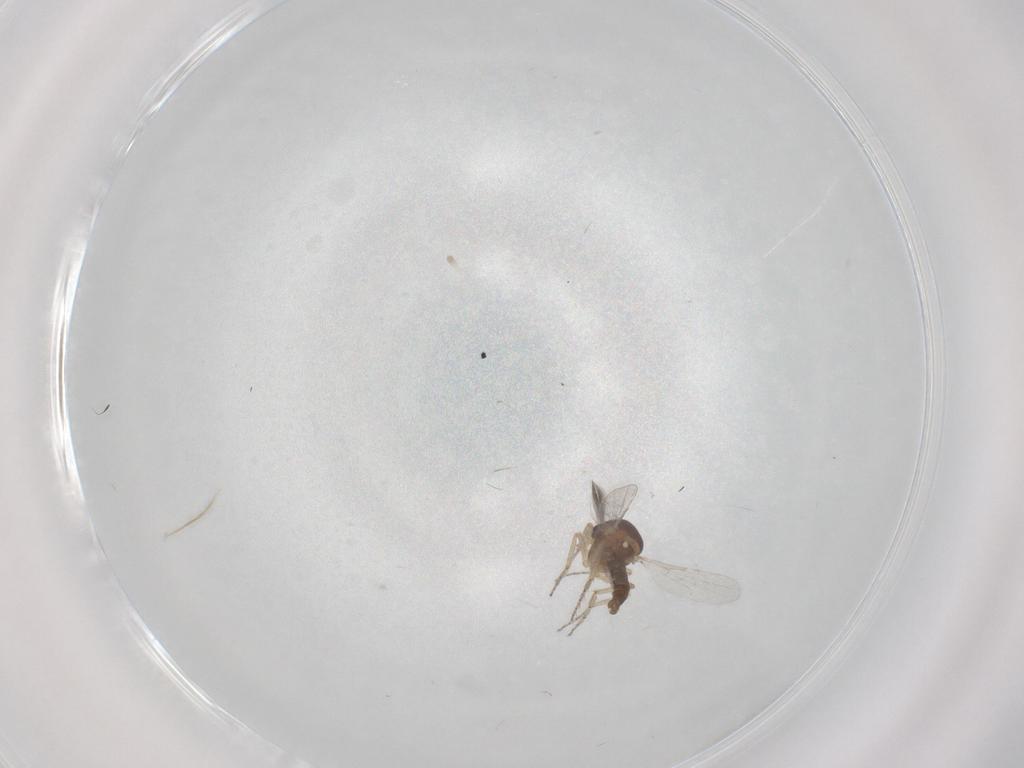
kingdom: Animalia
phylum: Arthropoda
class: Insecta
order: Diptera
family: Ceratopogonidae
